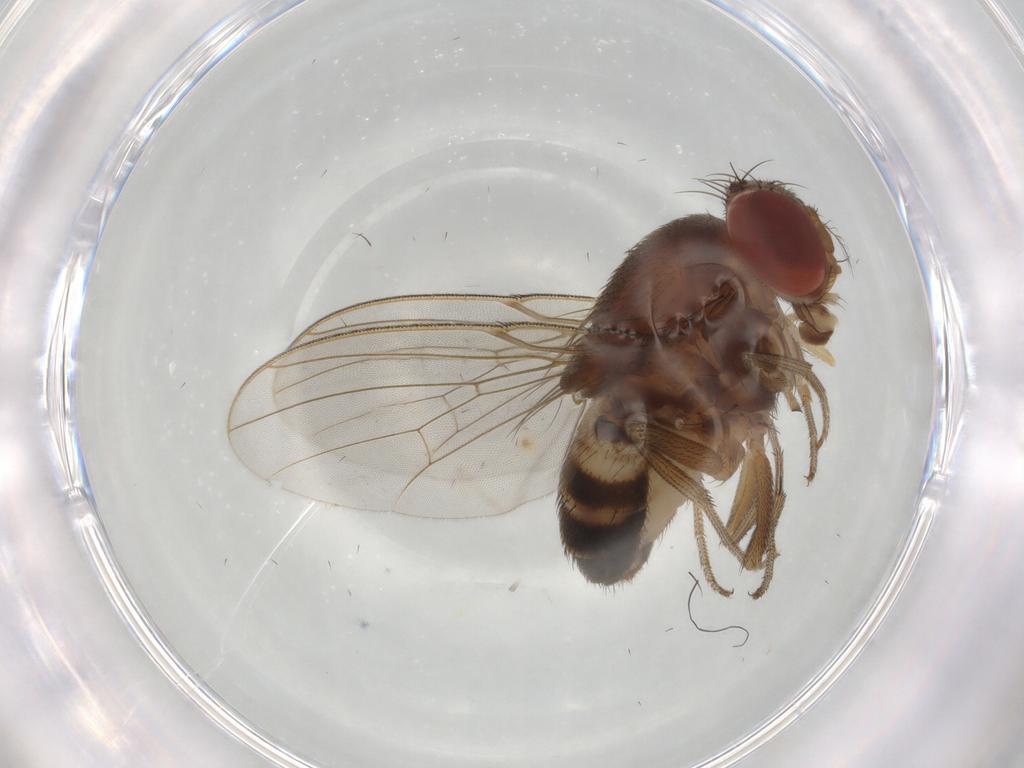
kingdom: Animalia
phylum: Arthropoda
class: Insecta
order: Diptera
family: Drosophilidae
